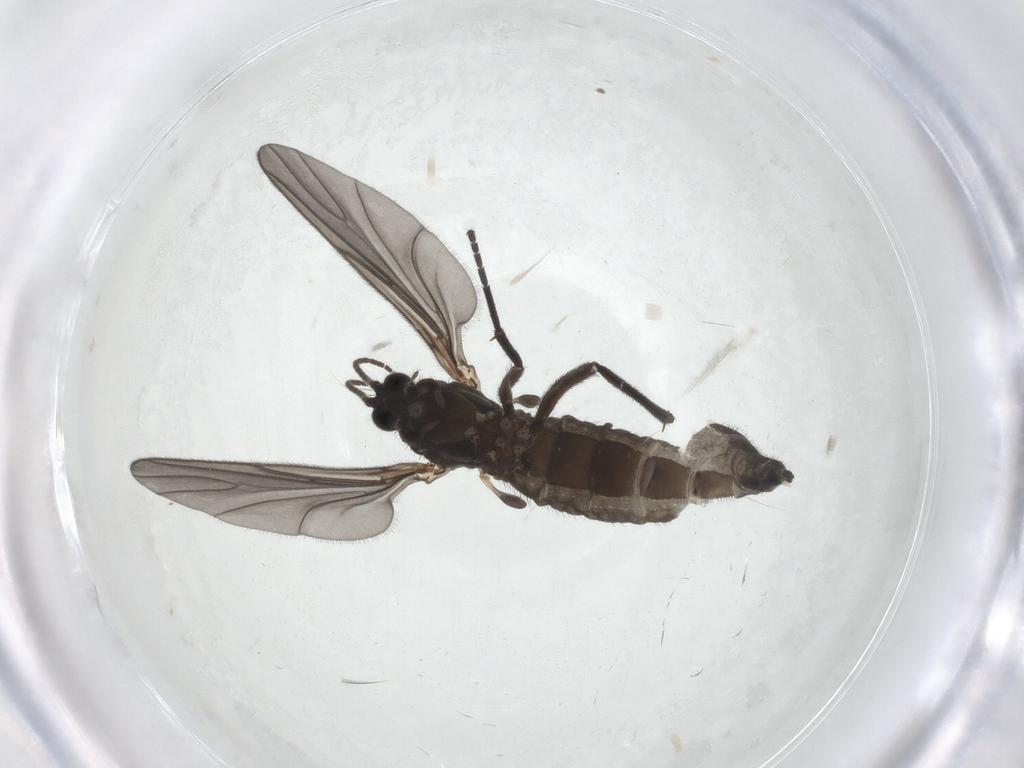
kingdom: Animalia
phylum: Arthropoda
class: Insecta
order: Diptera
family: Sciaridae
